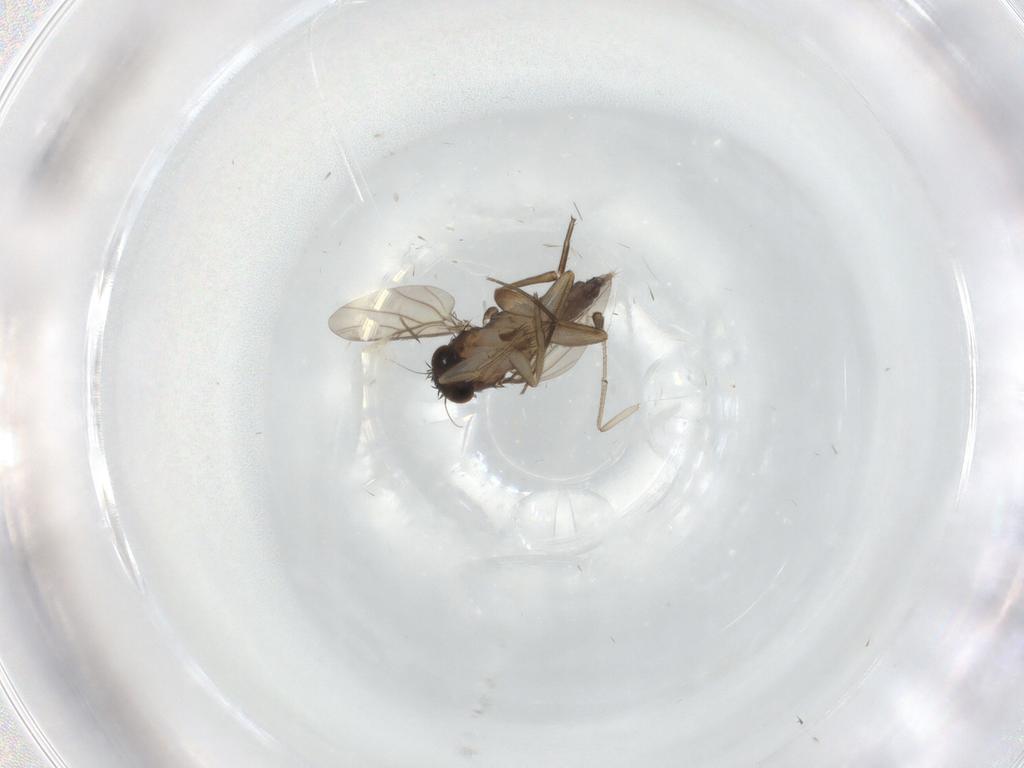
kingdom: Animalia
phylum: Arthropoda
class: Insecta
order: Diptera
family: Phoridae
